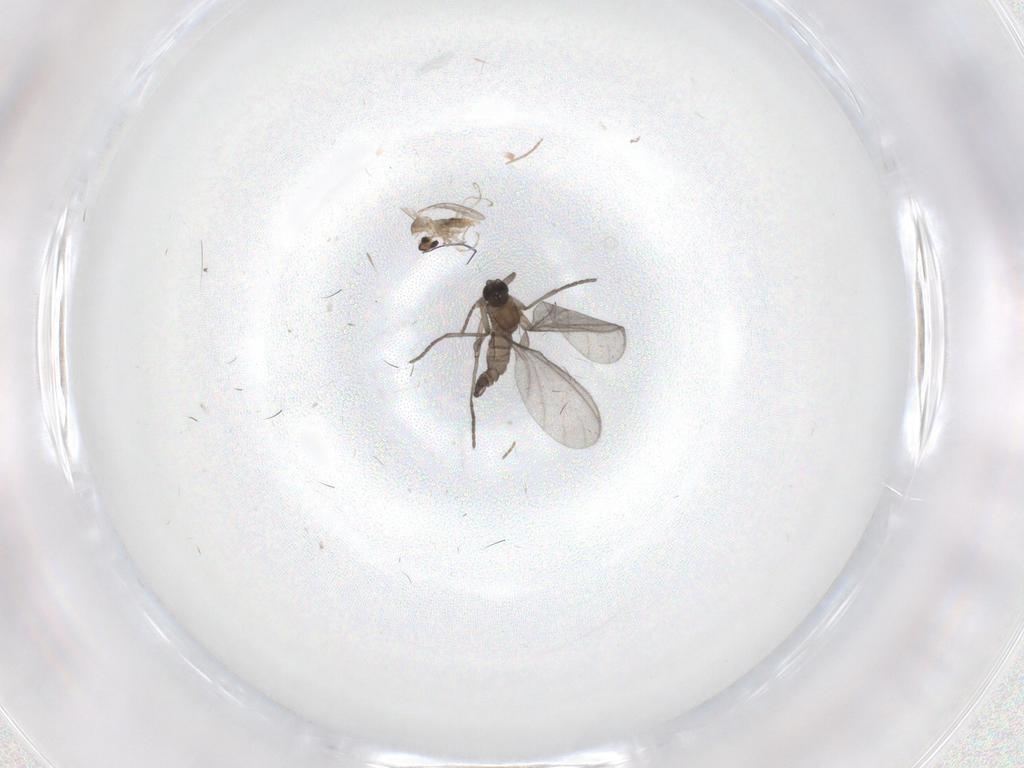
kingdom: Animalia
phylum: Arthropoda
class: Insecta
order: Diptera
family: Sciaridae
